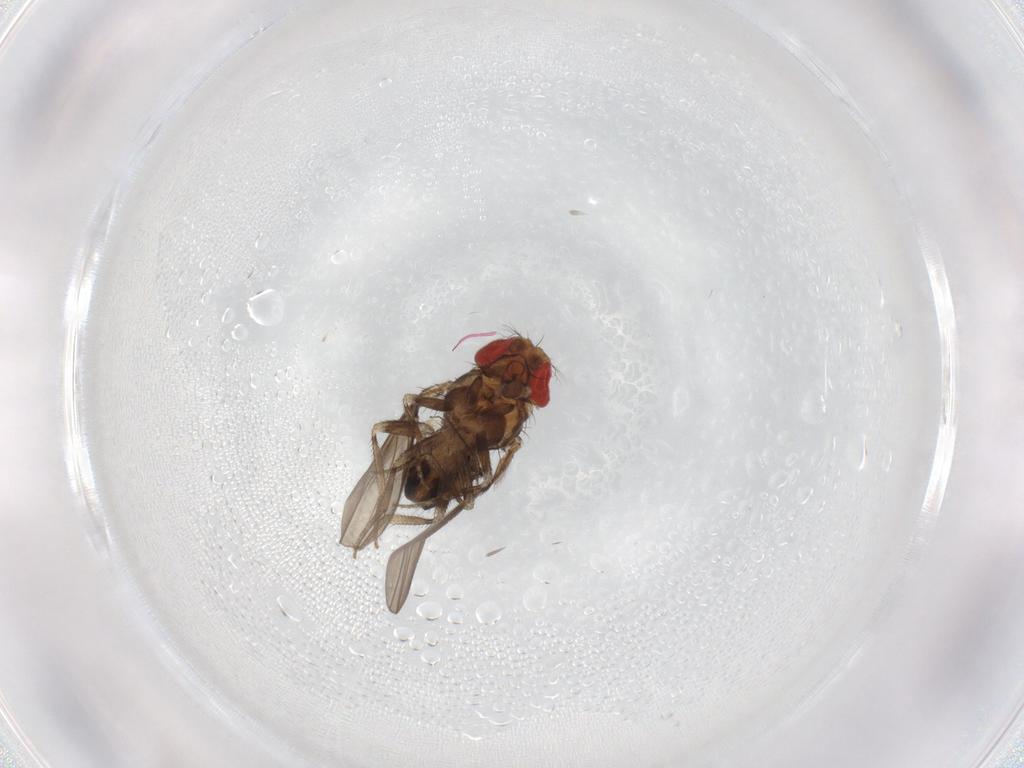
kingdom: Animalia
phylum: Arthropoda
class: Insecta
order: Diptera
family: Drosophilidae
